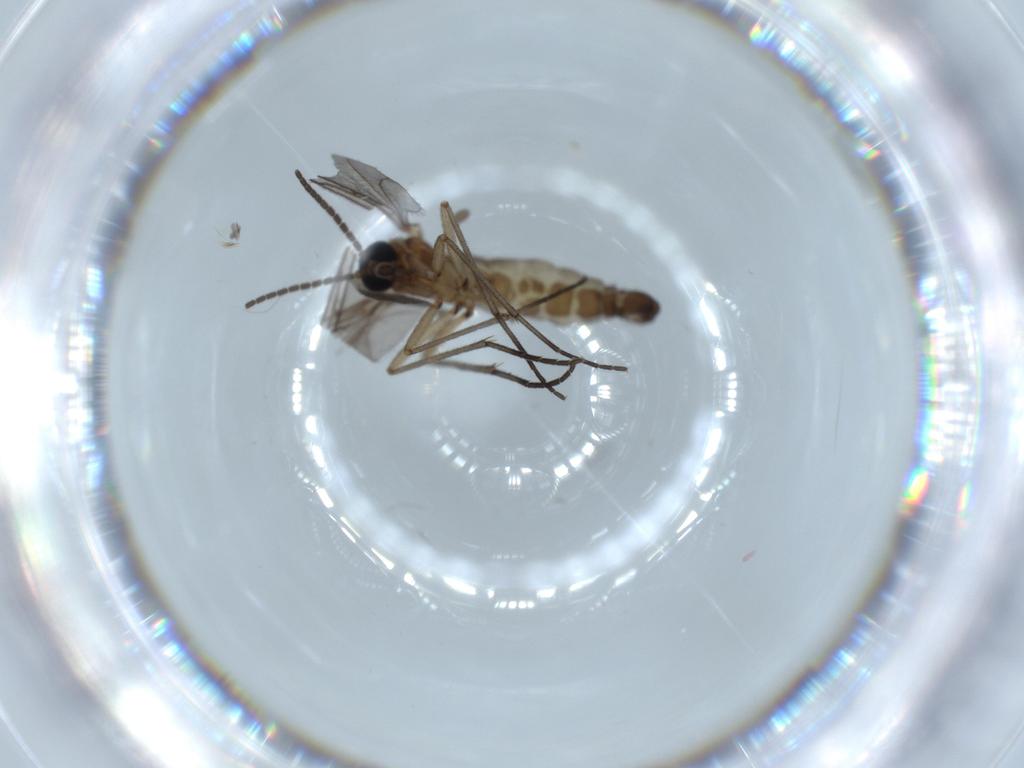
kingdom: Animalia
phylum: Arthropoda
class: Insecta
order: Diptera
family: Sciaridae
